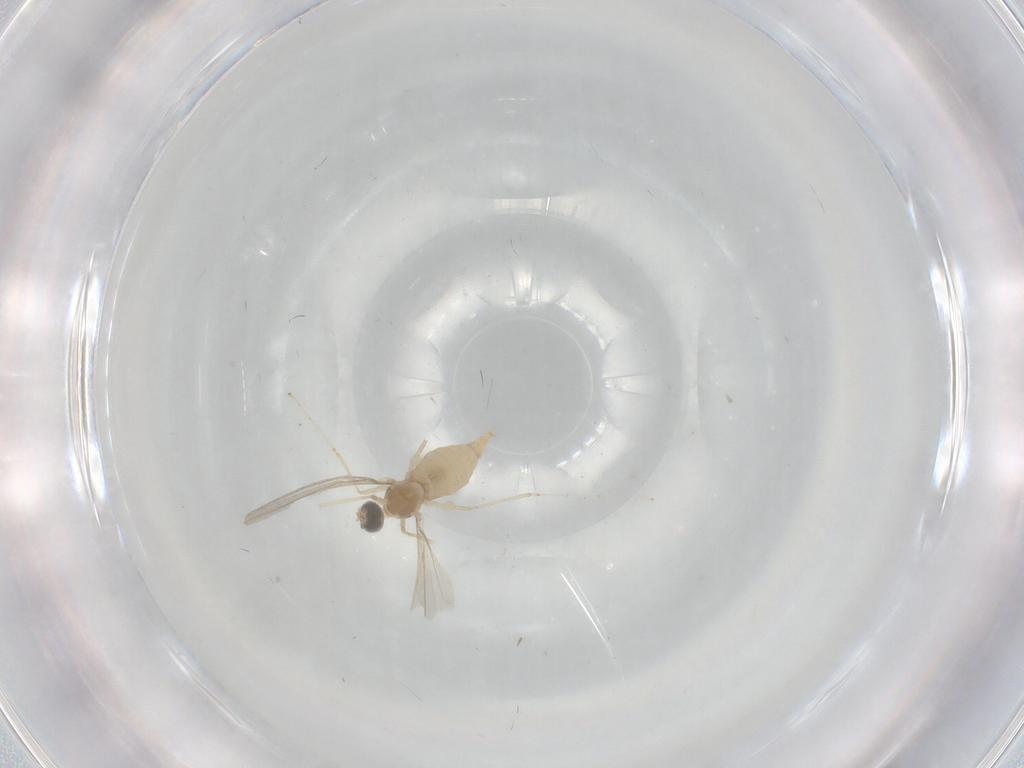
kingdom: Animalia
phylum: Arthropoda
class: Insecta
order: Diptera
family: Cecidomyiidae
